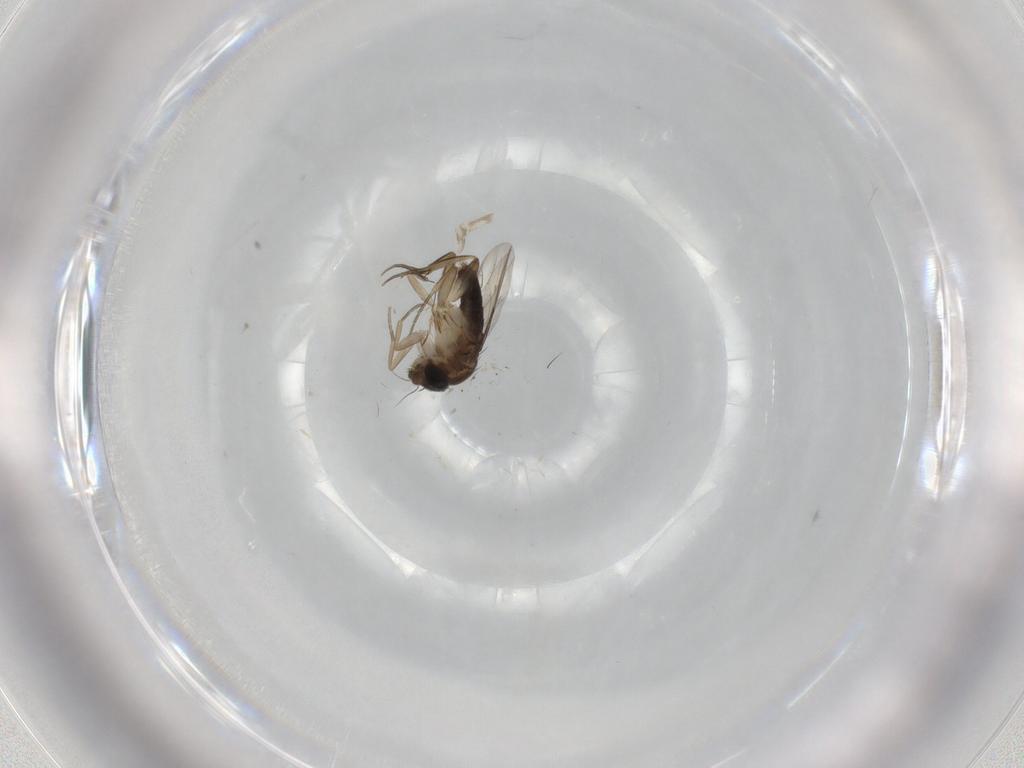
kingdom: Animalia
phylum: Arthropoda
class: Insecta
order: Diptera
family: Phoridae
